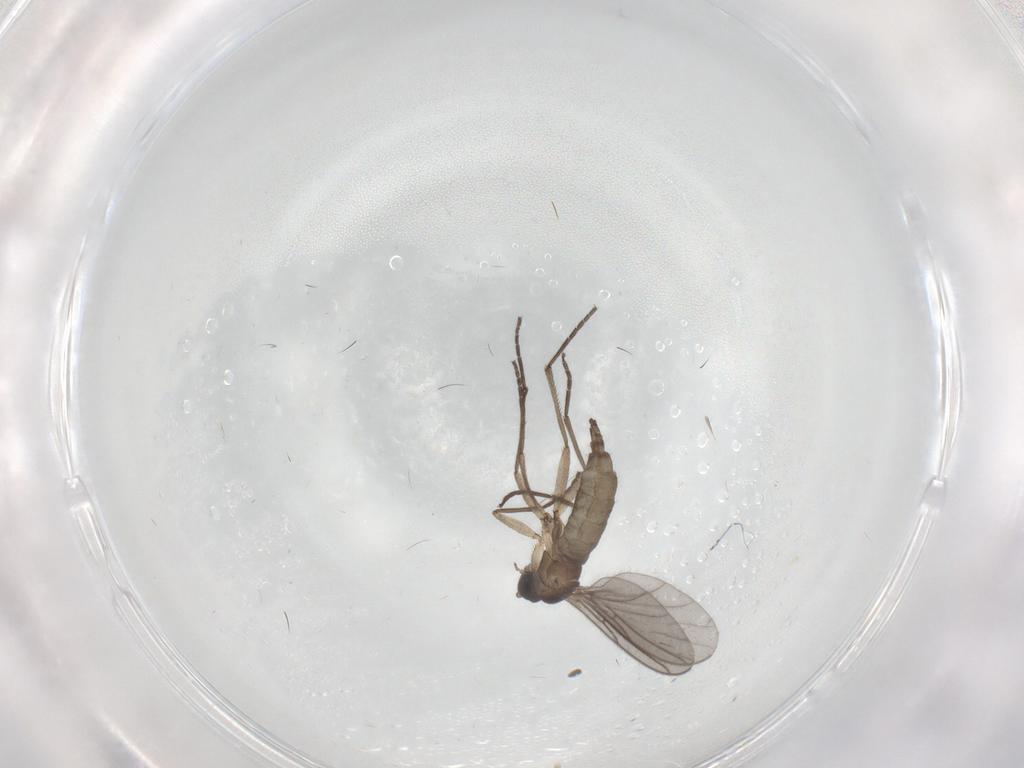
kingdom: Animalia
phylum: Arthropoda
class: Insecta
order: Diptera
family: Sciaridae
